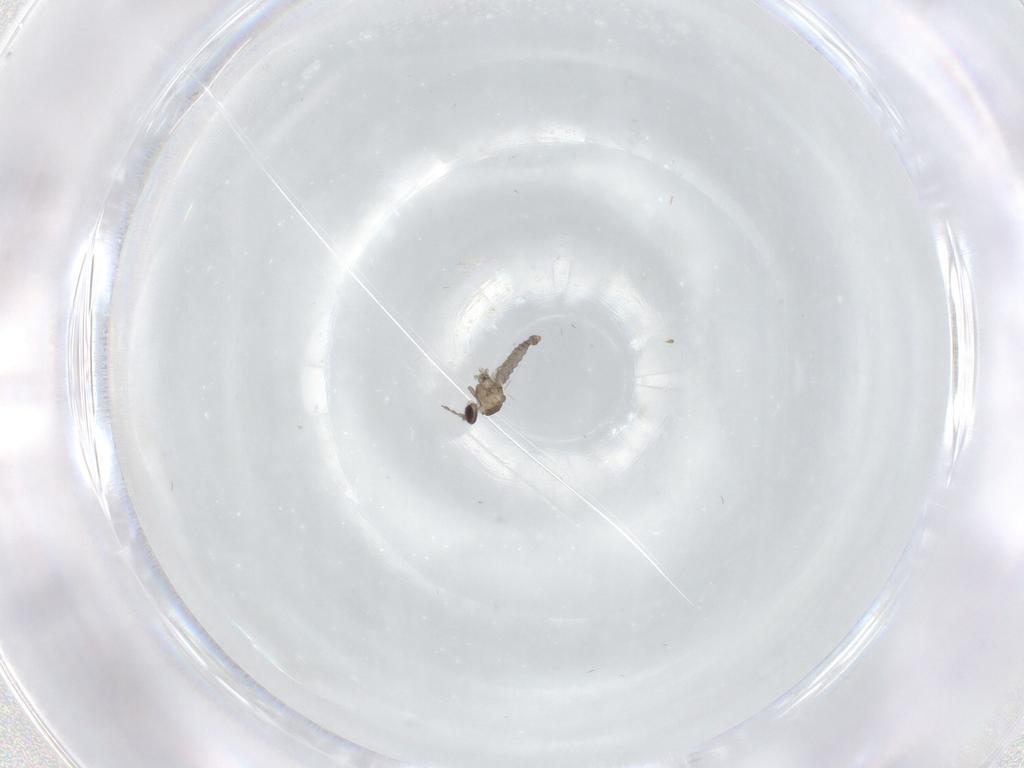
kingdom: Animalia
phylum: Arthropoda
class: Insecta
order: Diptera
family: Cecidomyiidae
